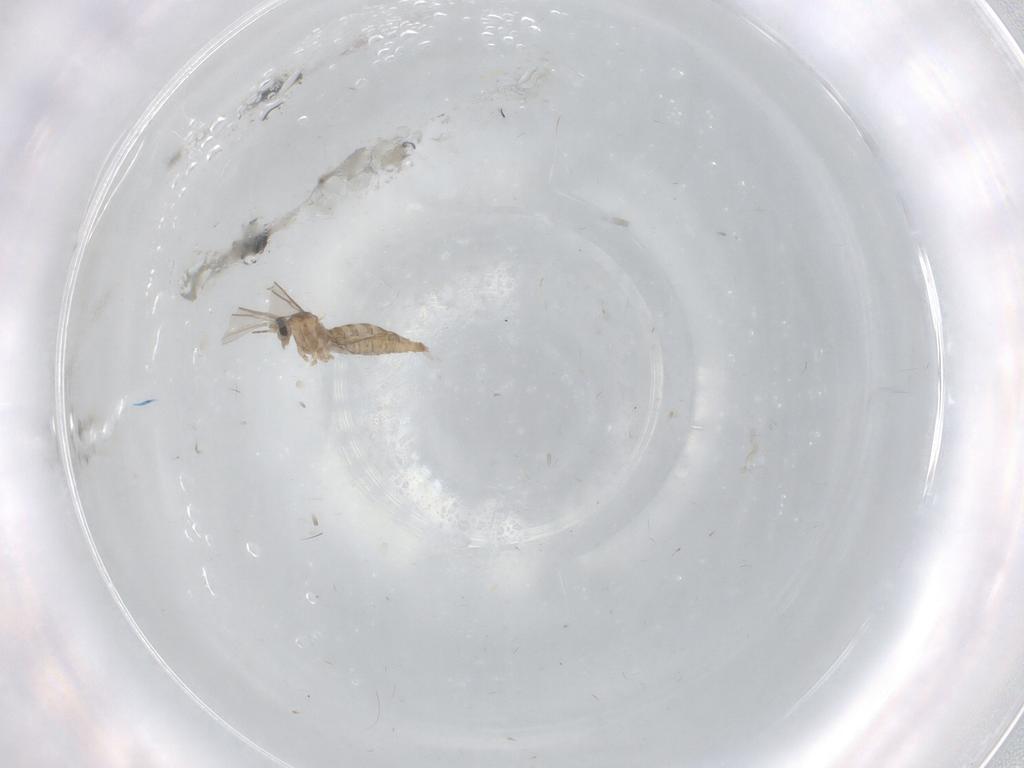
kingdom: Animalia
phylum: Arthropoda
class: Insecta
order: Diptera
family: Cecidomyiidae
